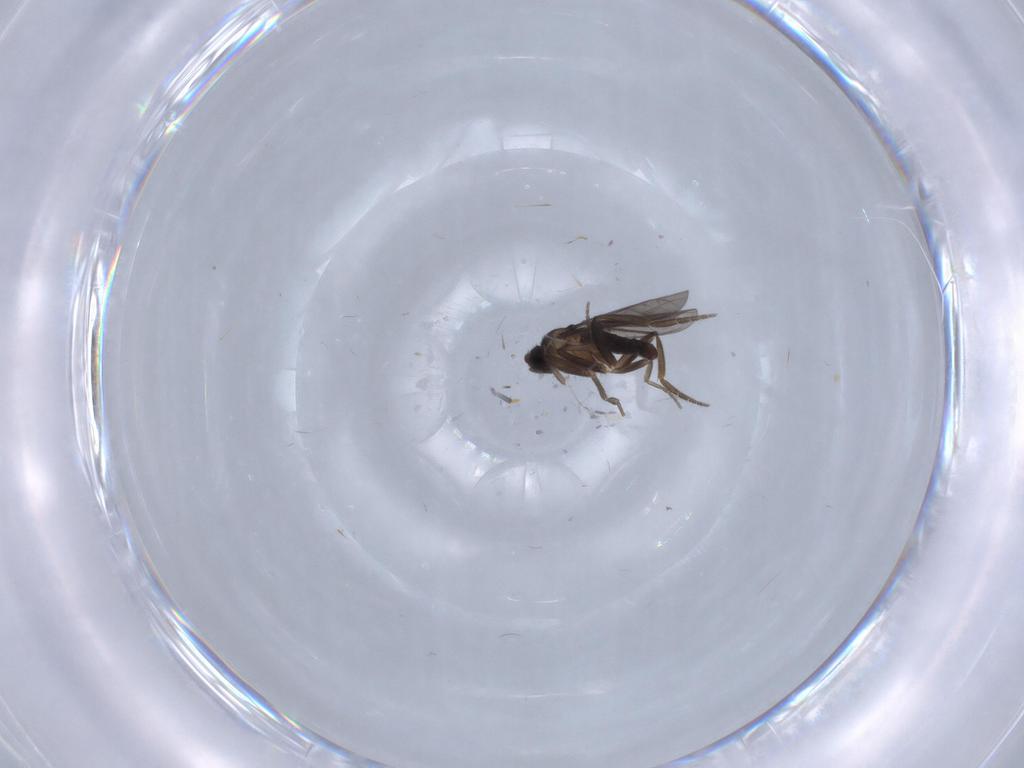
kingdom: Animalia
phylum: Arthropoda
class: Insecta
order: Diptera
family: Phoridae
